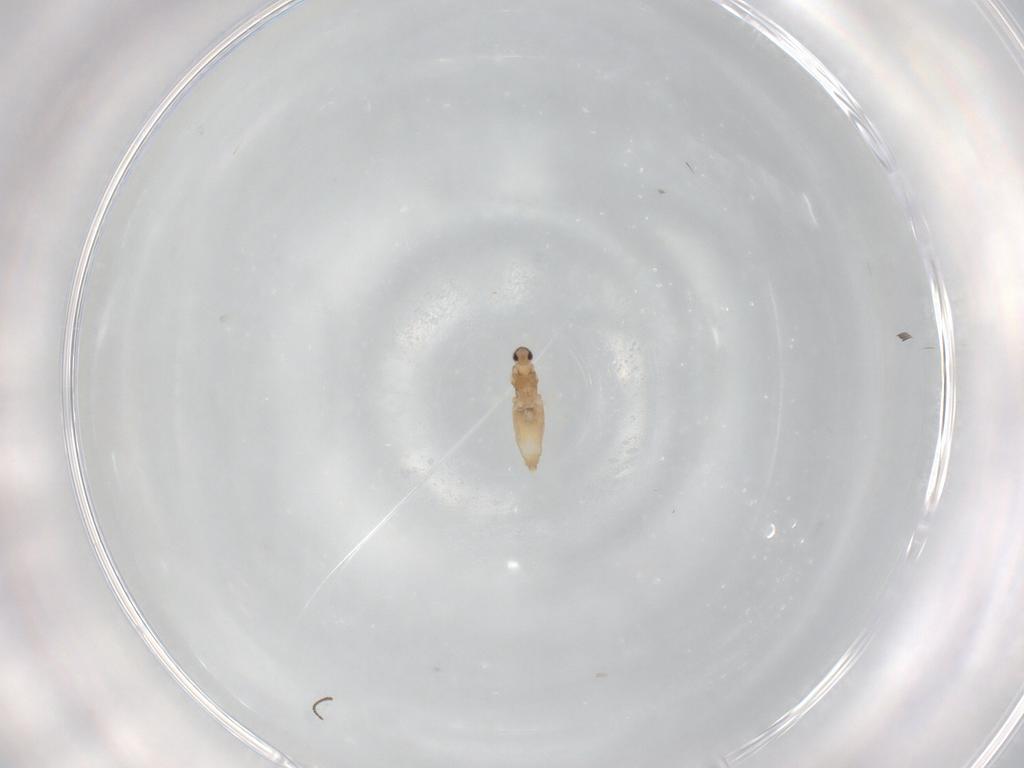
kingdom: Animalia
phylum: Arthropoda
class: Insecta
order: Diptera
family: Cecidomyiidae
